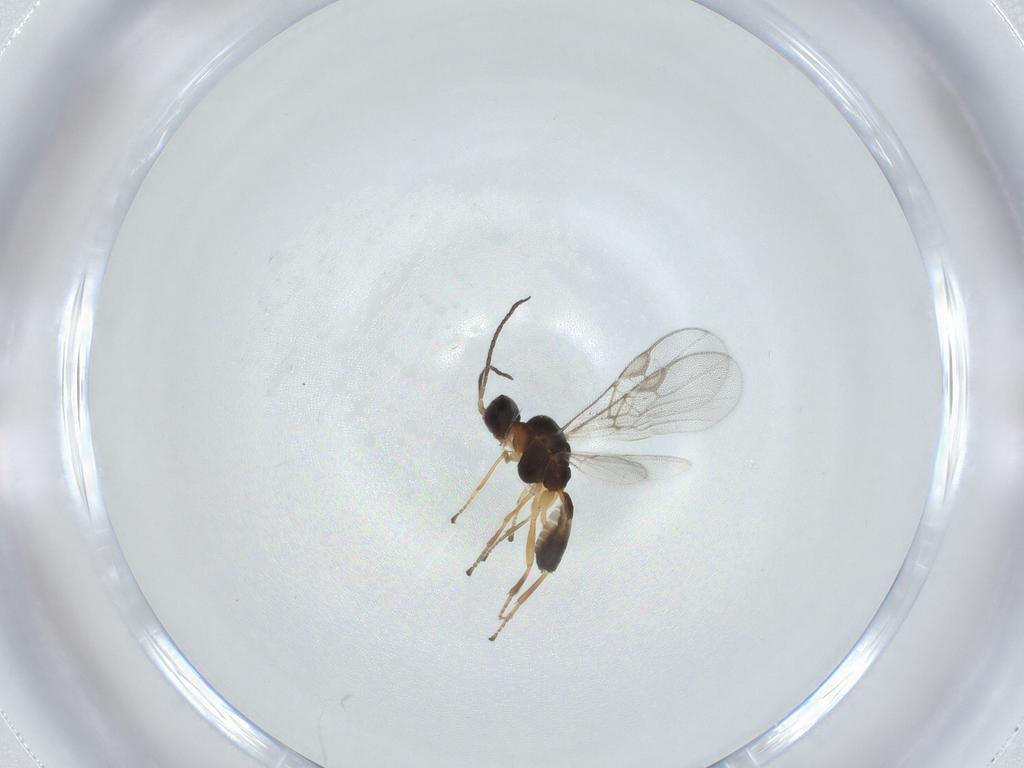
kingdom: Animalia
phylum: Arthropoda
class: Insecta
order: Hymenoptera
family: Braconidae
